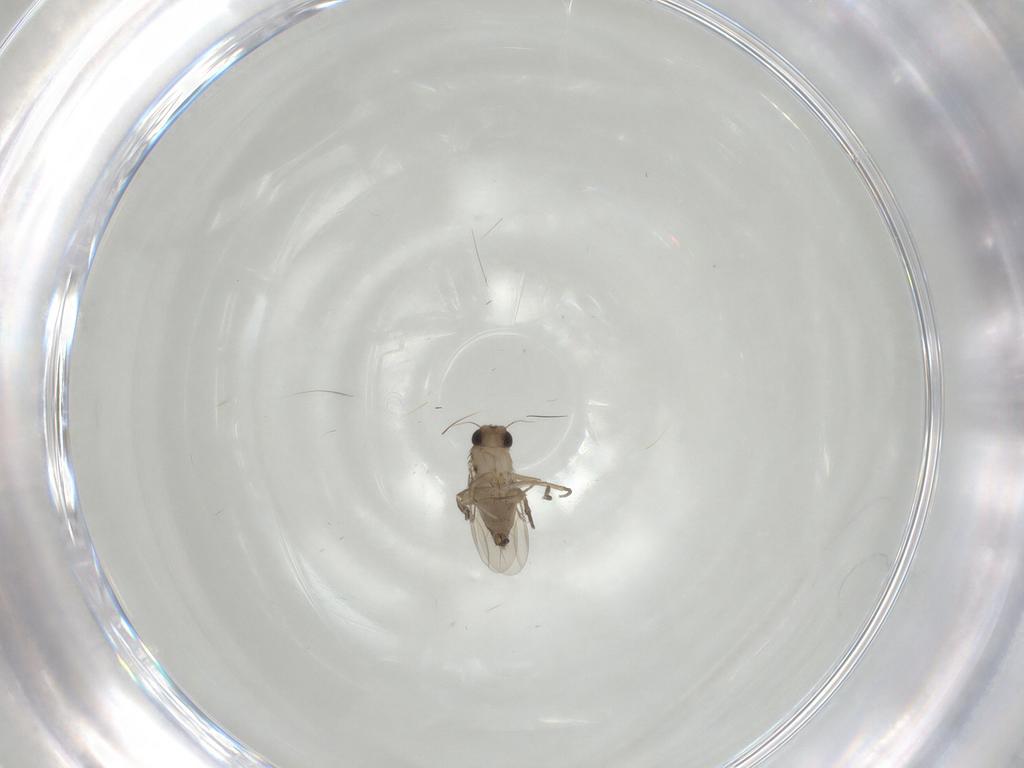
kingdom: Animalia
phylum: Arthropoda
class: Insecta
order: Diptera
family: Phoridae
